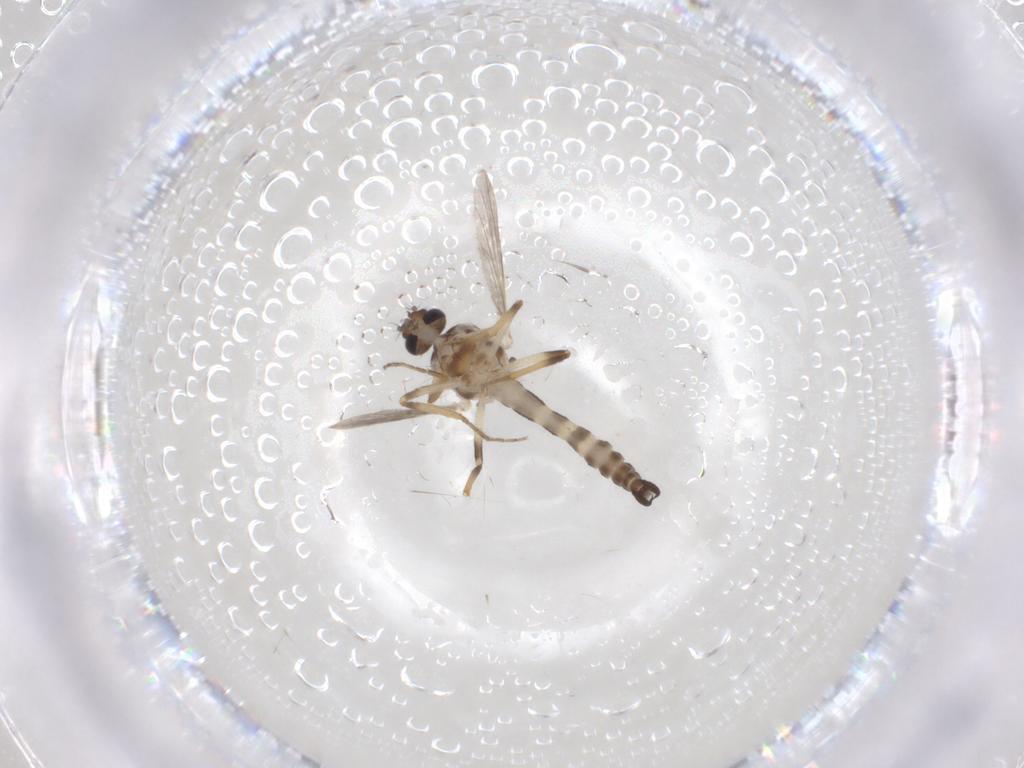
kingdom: Animalia
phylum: Arthropoda
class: Insecta
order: Diptera
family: Ceratopogonidae
